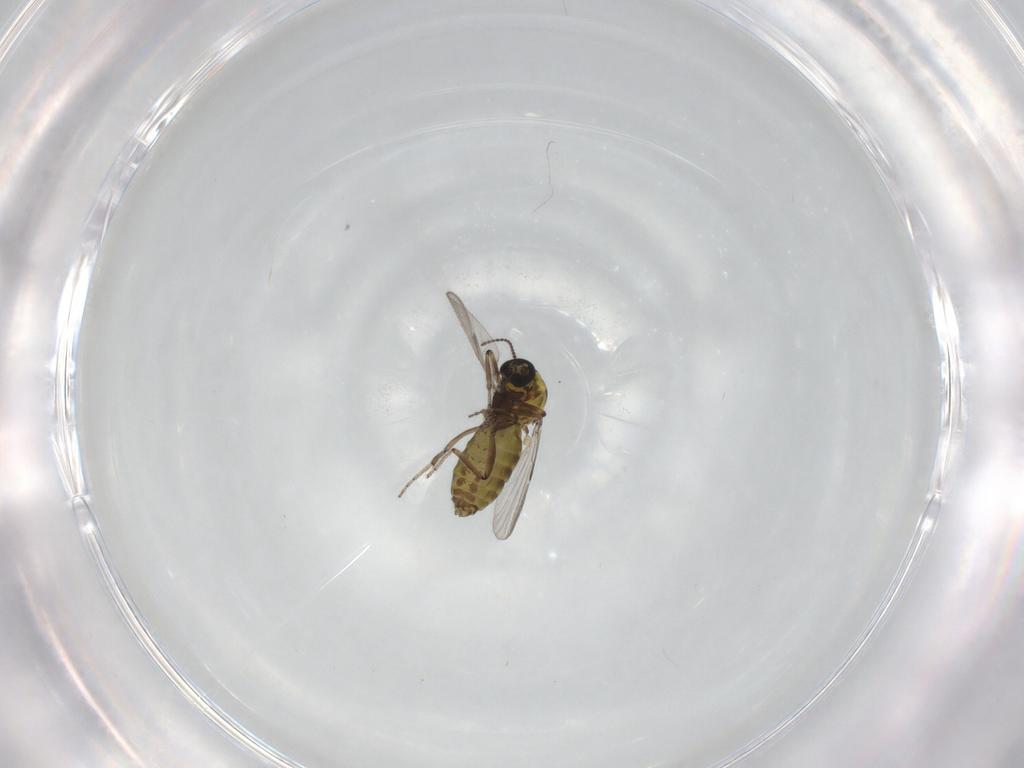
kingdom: Animalia
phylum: Arthropoda
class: Insecta
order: Diptera
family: Ceratopogonidae
